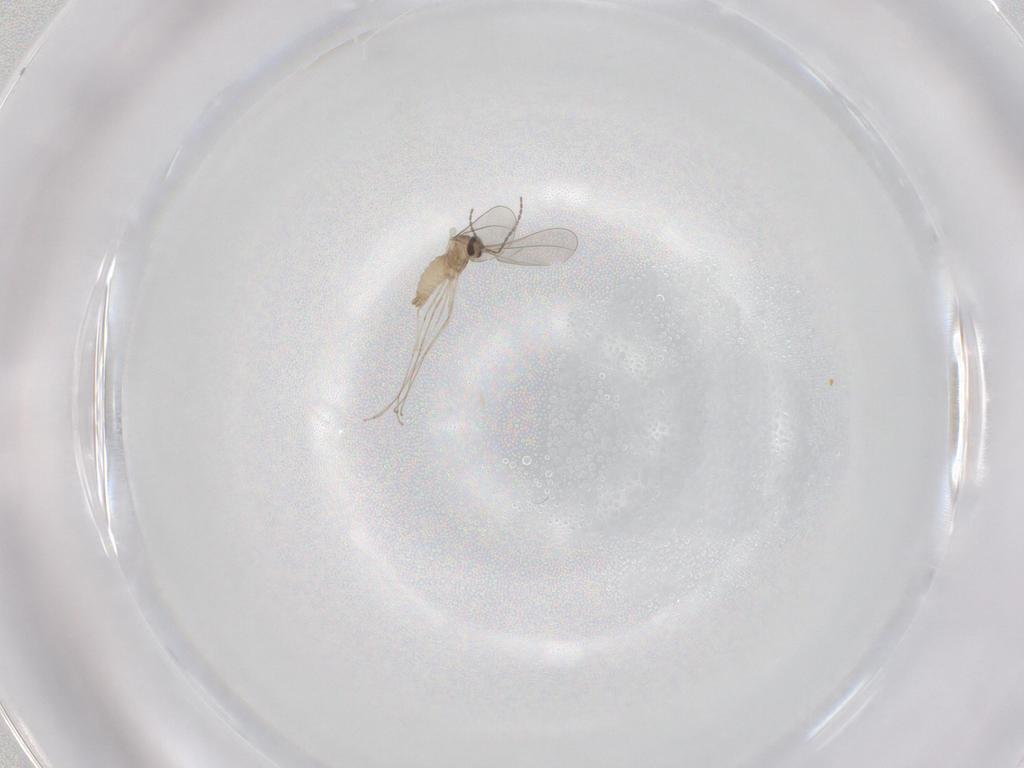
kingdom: Animalia
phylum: Arthropoda
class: Insecta
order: Diptera
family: Cecidomyiidae
